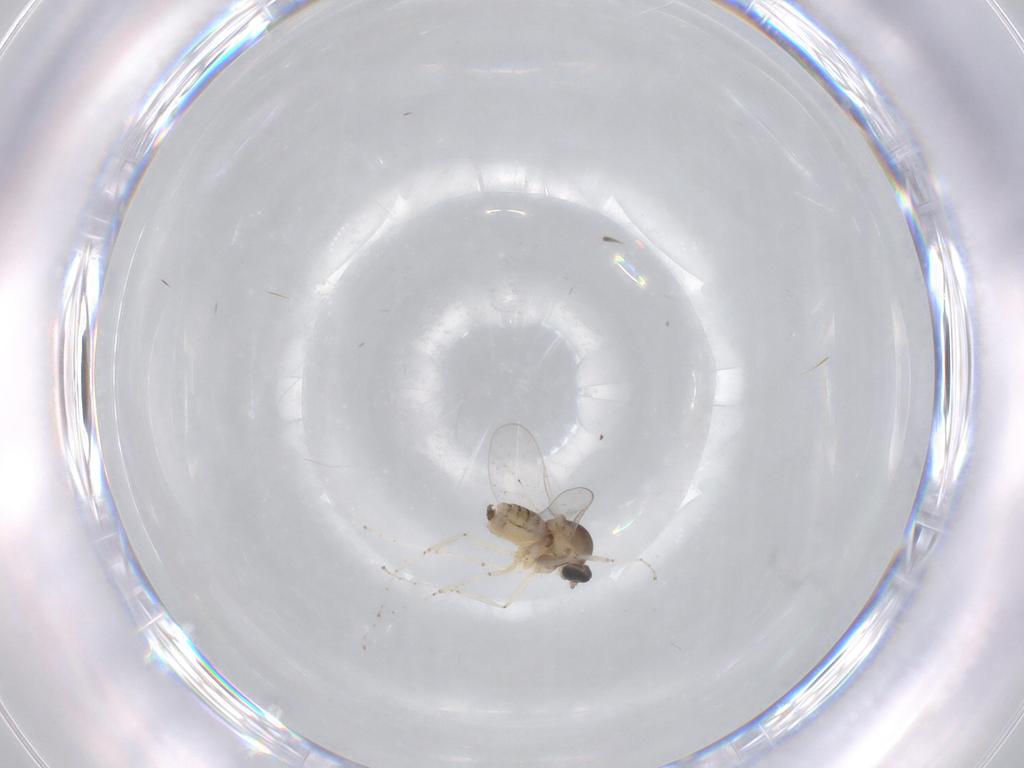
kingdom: Animalia
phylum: Arthropoda
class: Insecta
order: Diptera
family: Cecidomyiidae
